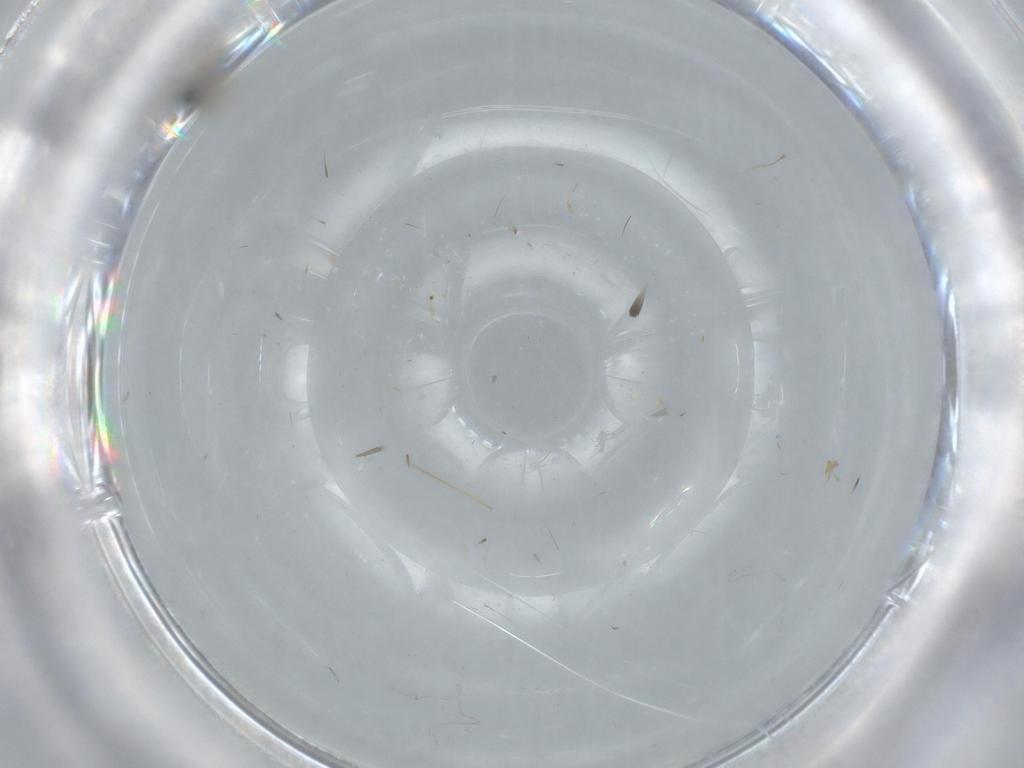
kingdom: Animalia
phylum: Arthropoda
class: Insecta
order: Diptera
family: Cecidomyiidae
